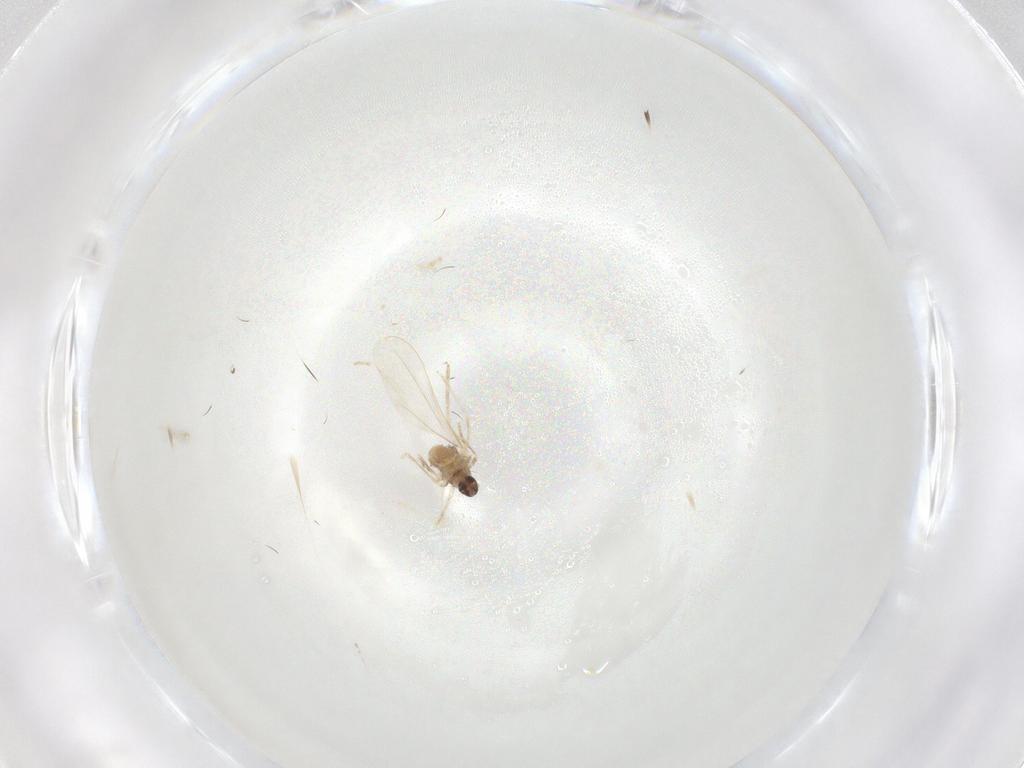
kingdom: Animalia
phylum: Arthropoda
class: Insecta
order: Diptera
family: Cecidomyiidae
